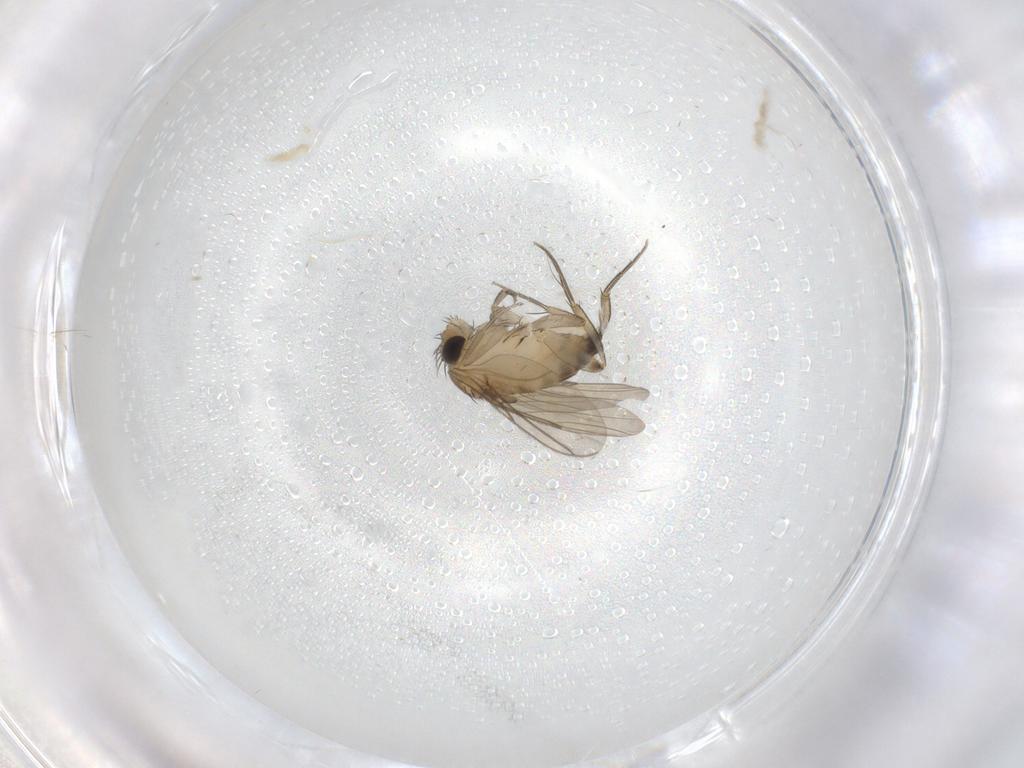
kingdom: Animalia
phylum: Arthropoda
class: Insecta
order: Diptera
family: Phoridae
